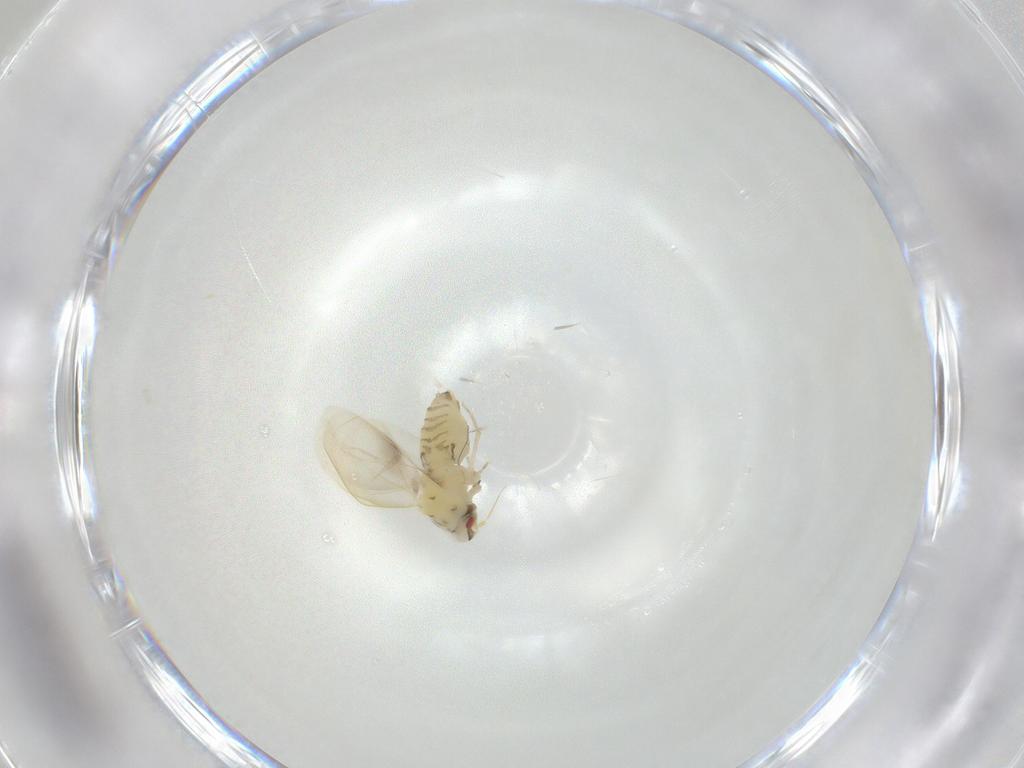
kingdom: Animalia
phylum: Arthropoda
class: Insecta
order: Hemiptera
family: Aleyrodidae
